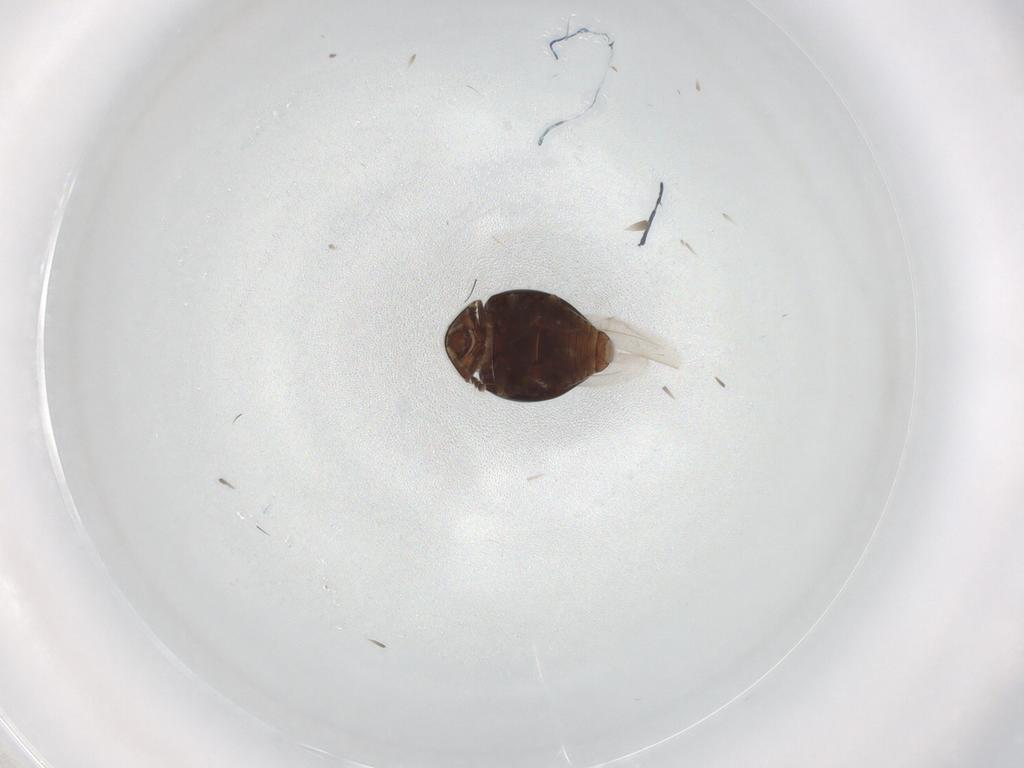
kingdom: Animalia
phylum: Arthropoda
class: Insecta
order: Coleoptera
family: Corylophidae
